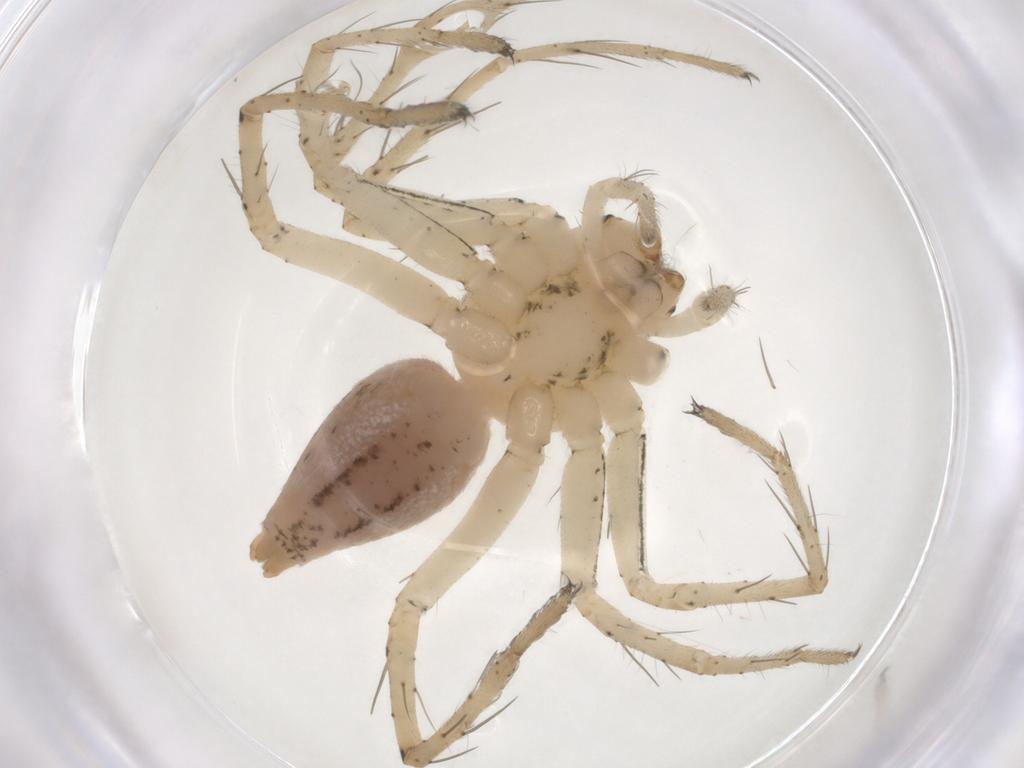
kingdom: Animalia
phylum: Arthropoda
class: Arachnida
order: Araneae
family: Oxyopidae
